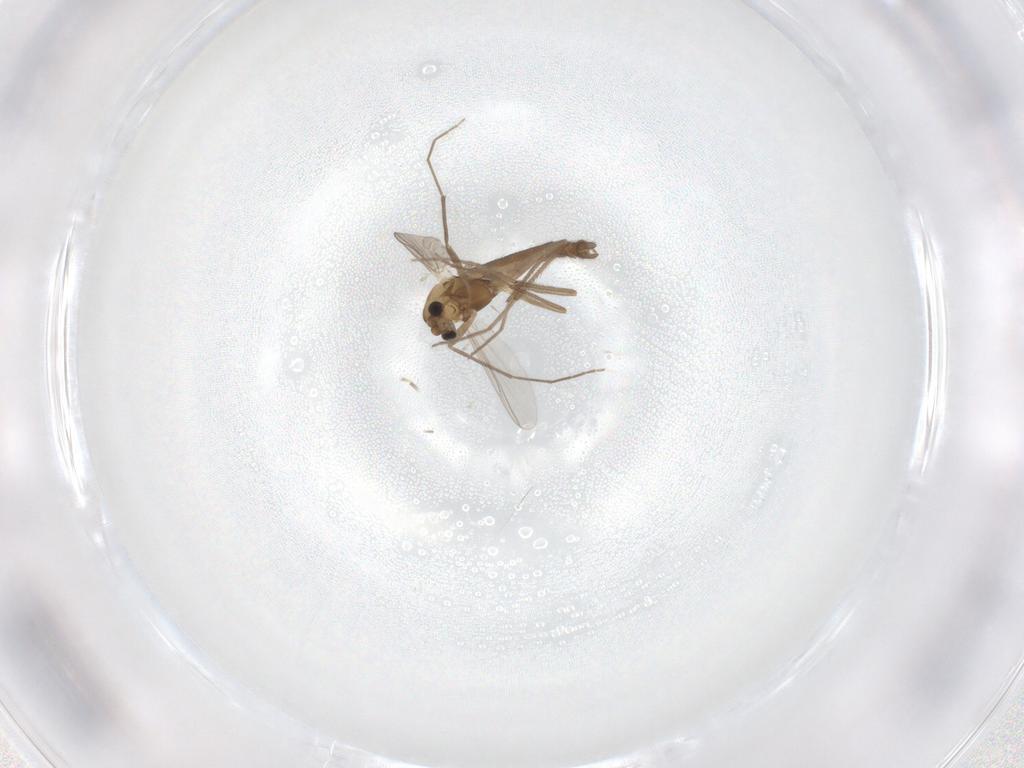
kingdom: Animalia
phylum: Arthropoda
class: Insecta
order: Diptera
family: Chironomidae
